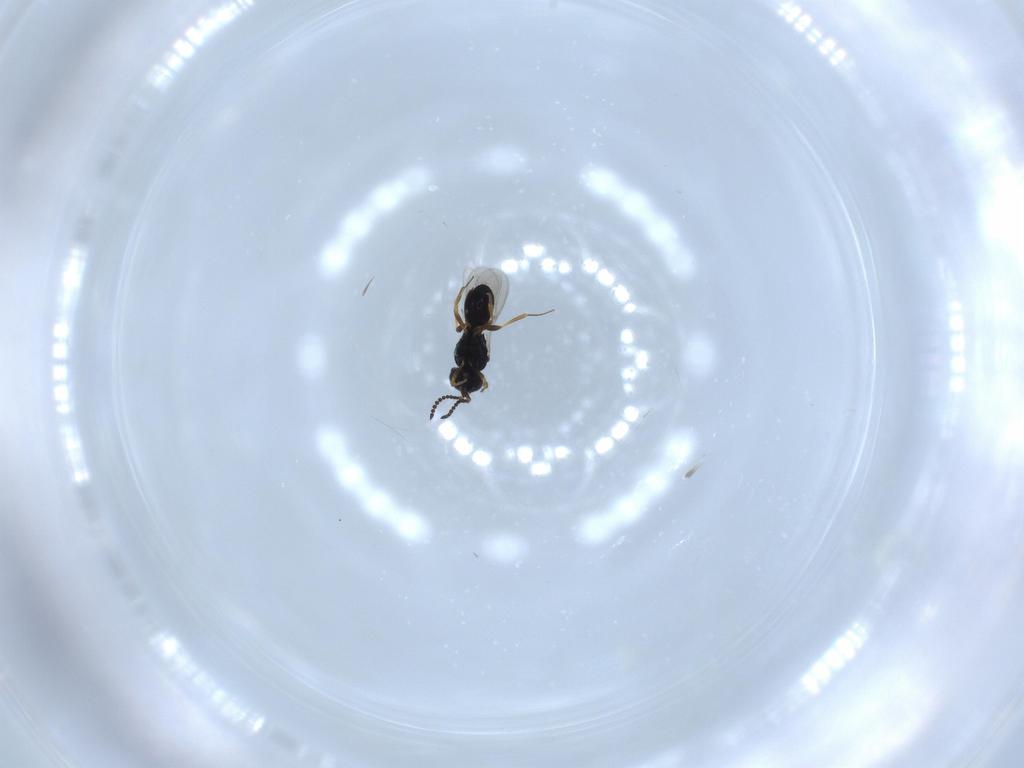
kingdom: Animalia
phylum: Arthropoda
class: Insecta
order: Hymenoptera
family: Scelionidae
